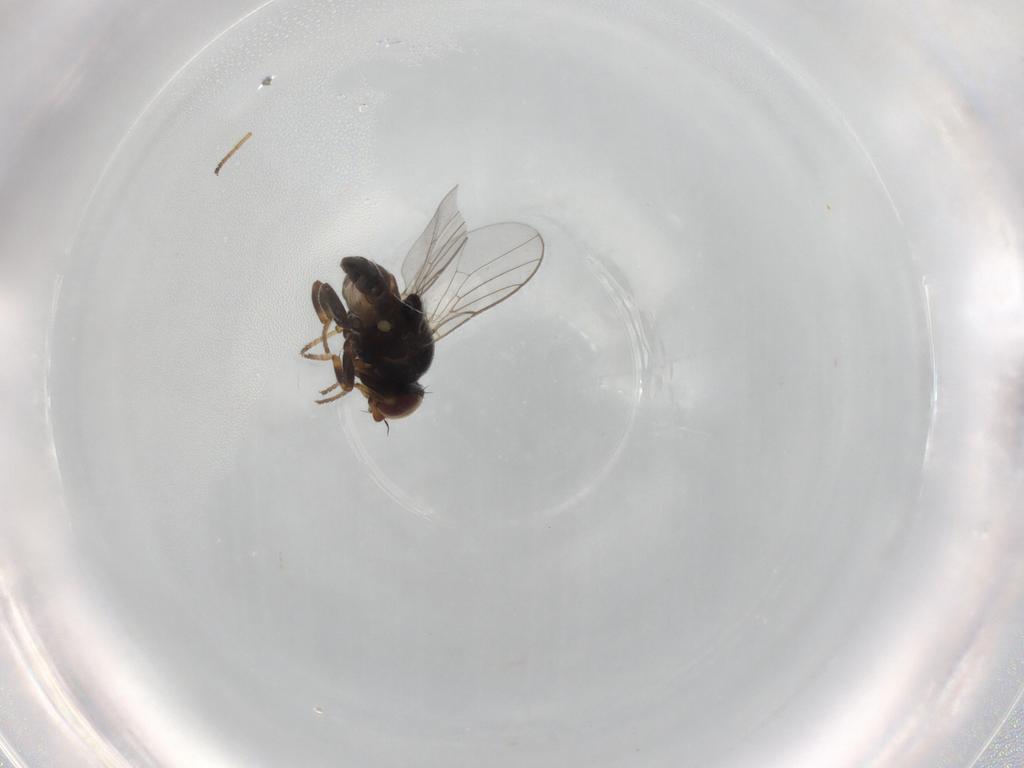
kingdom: Animalia
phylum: Arthropoda
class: Insecta
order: Diptera
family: Chloropidae
